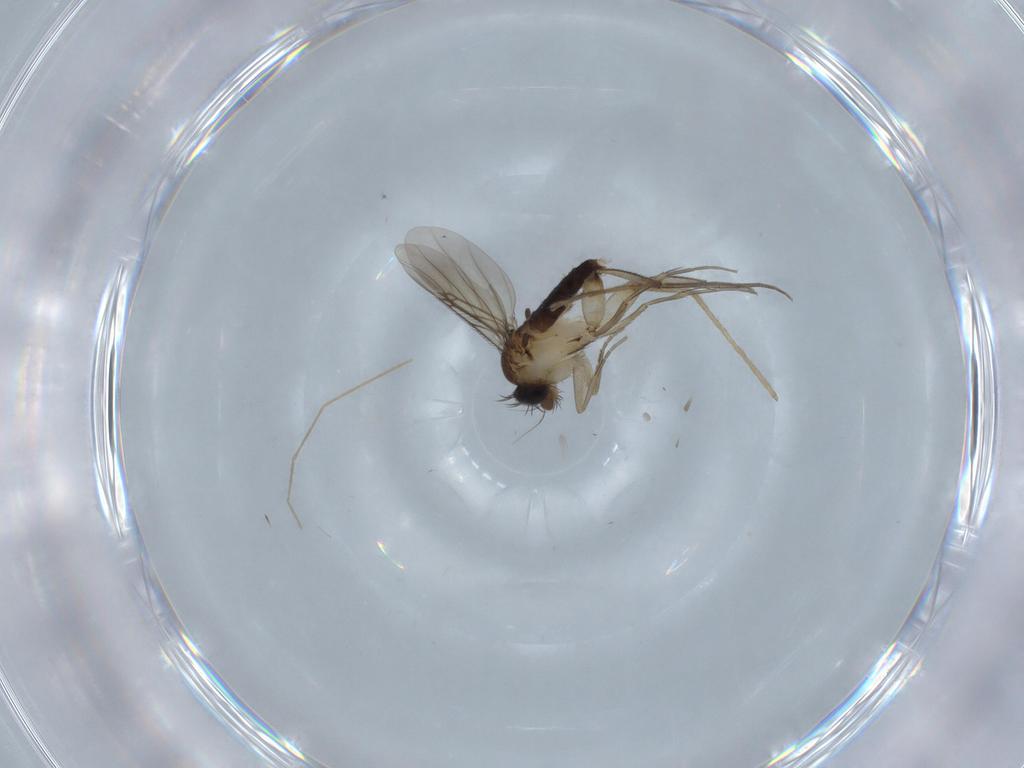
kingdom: Animalia
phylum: Arthropoda
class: Insecta
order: Diptera
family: Phoridae
